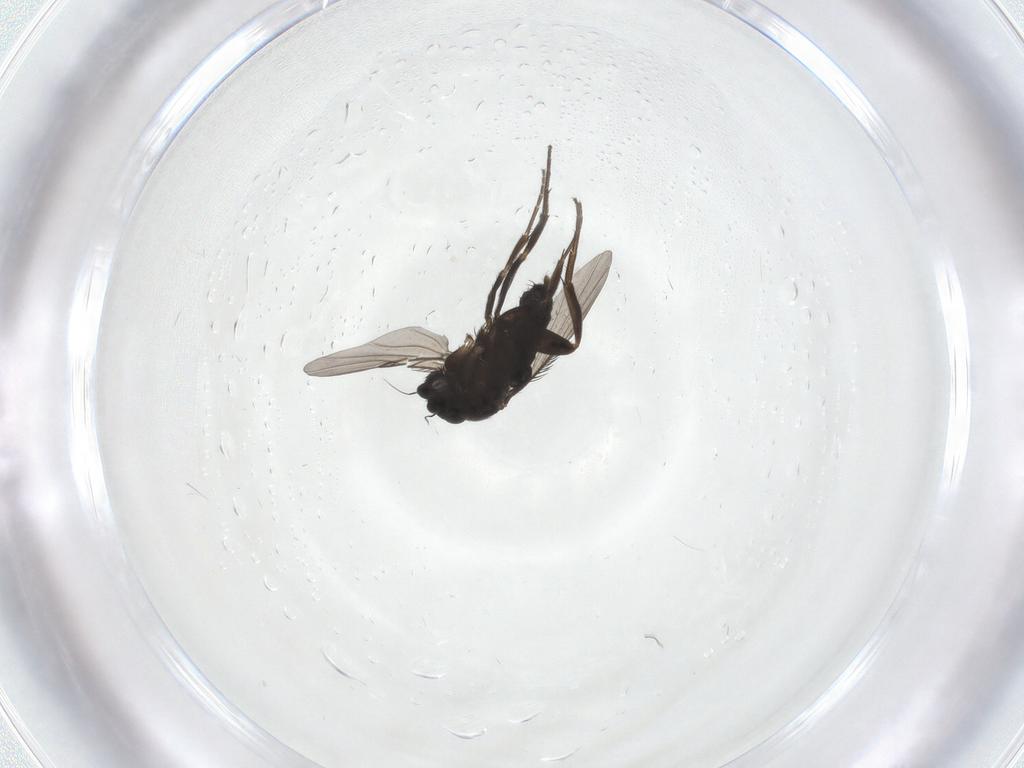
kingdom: Animalia
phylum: Arthropoda
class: Insecta
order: Diptera
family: Phoridae
